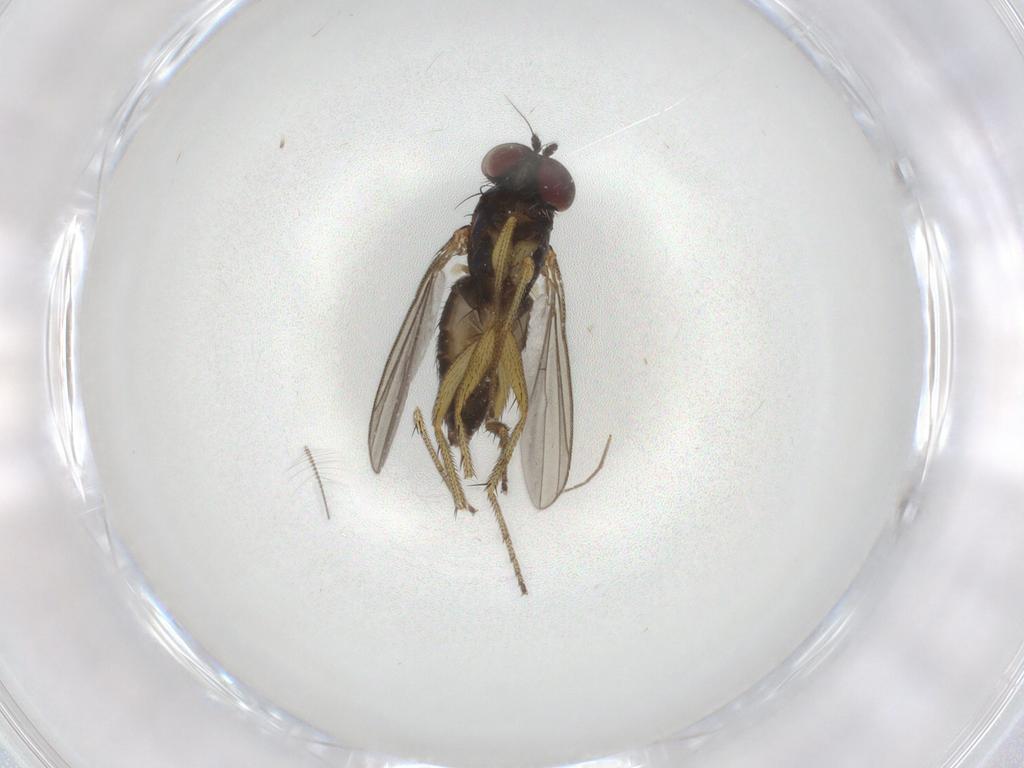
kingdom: Animalia
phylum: Arthropoda
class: Insecta
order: Diptera
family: Chironomidae
